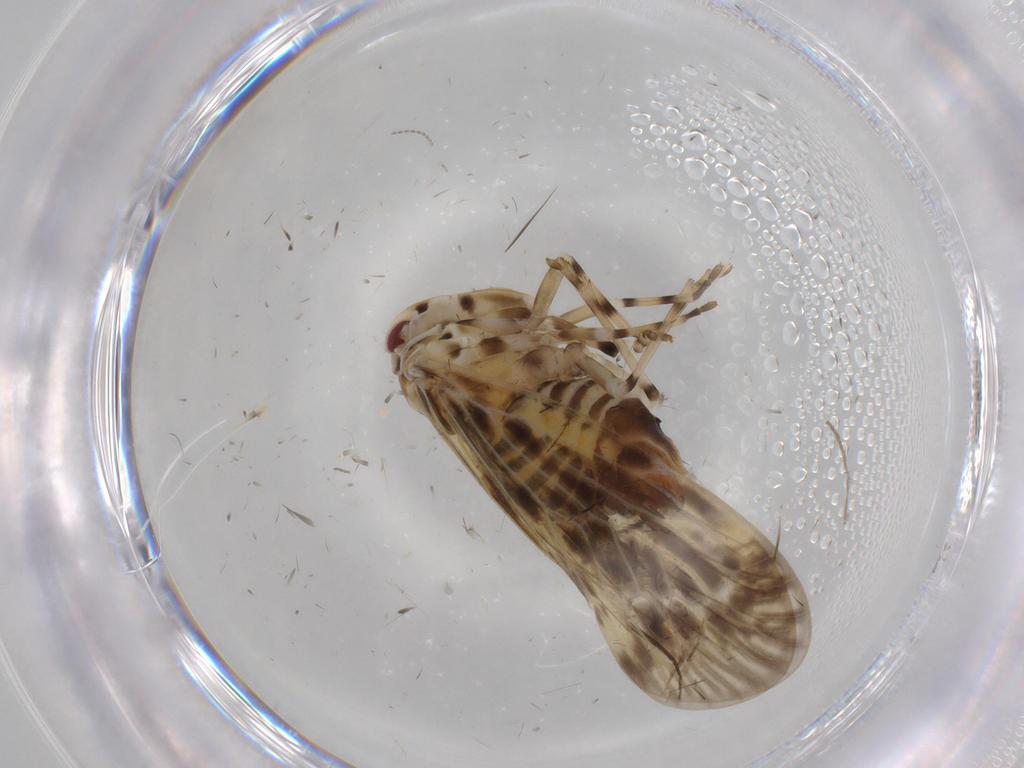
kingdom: Animalia
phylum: Arthropoda
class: Insecta
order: Hemiptera
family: Derbidae
